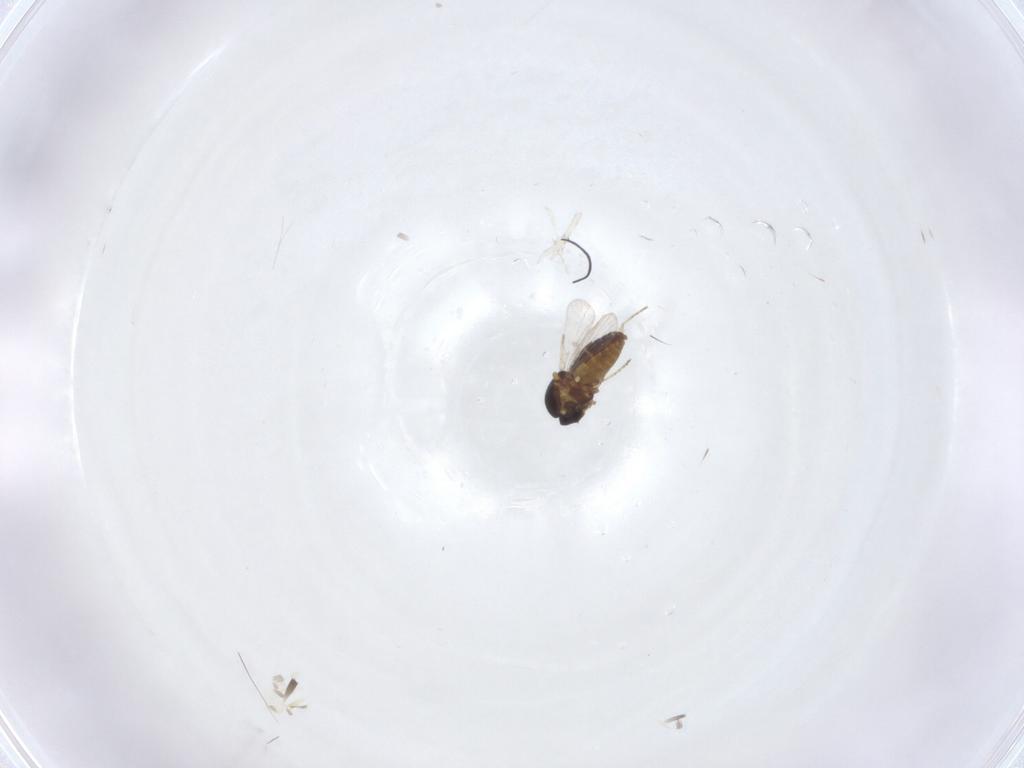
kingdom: Animalia
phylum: Arthropoda
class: Insecta
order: Diptera
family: Ceratopogonidae
